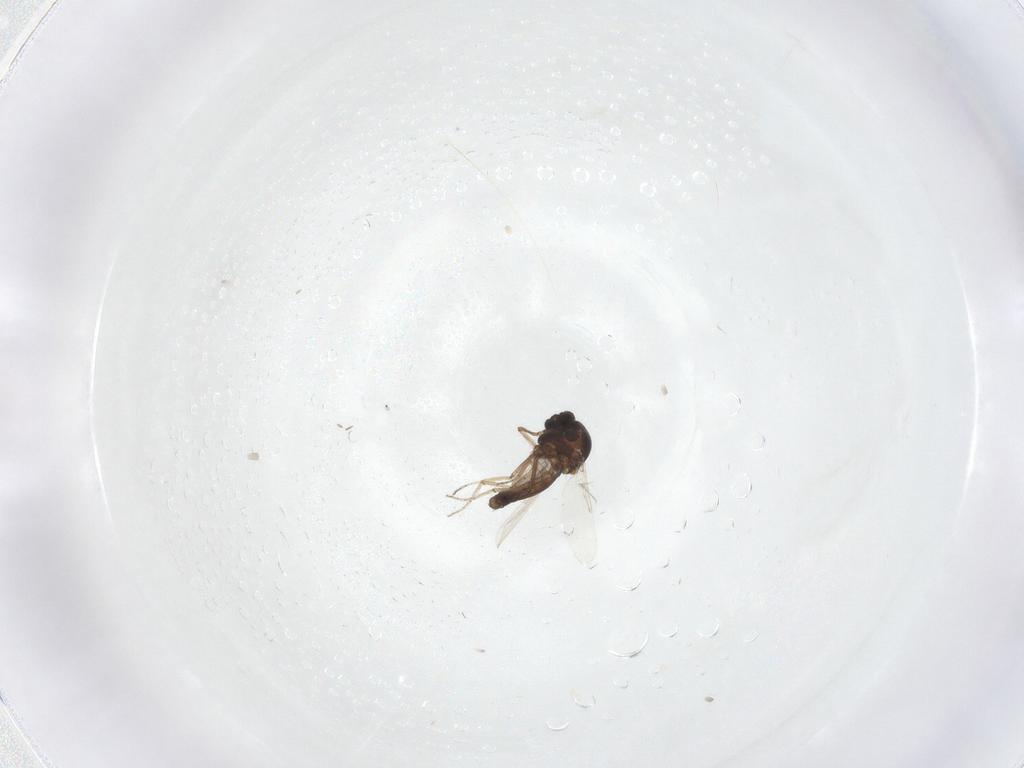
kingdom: Animalia
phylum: Arthropoda
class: Insecta
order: Diptera
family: Ceratopogonidae
